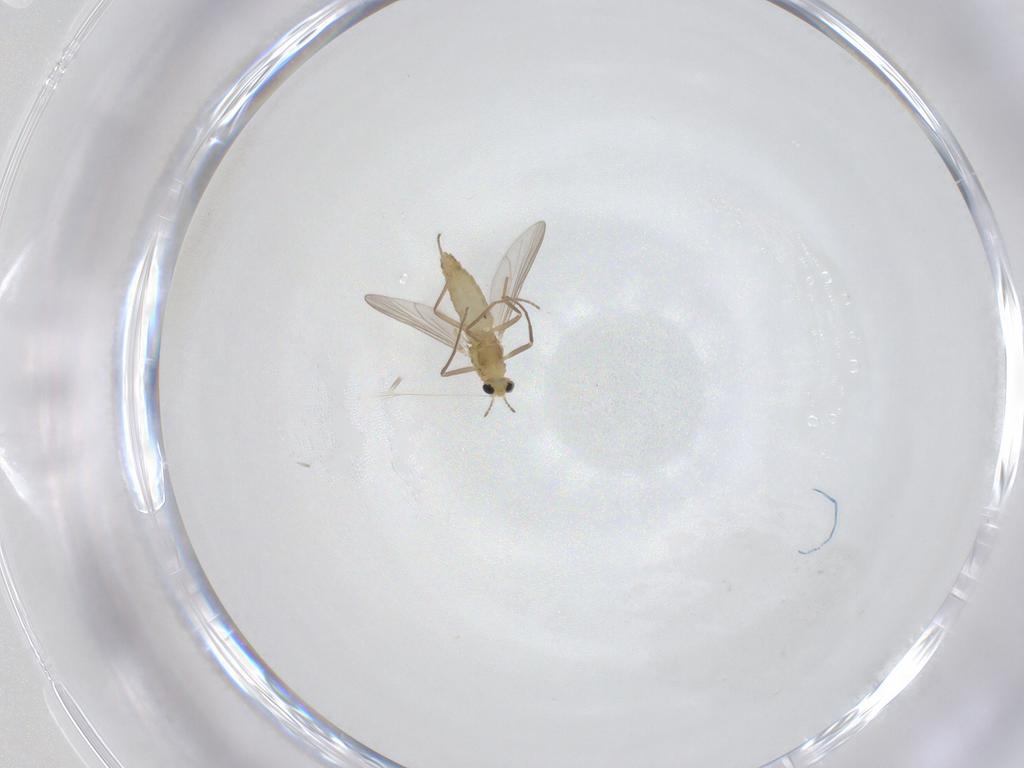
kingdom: Animalia
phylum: Arthropoda
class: Insecta
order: Diptera
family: Chironomidae
